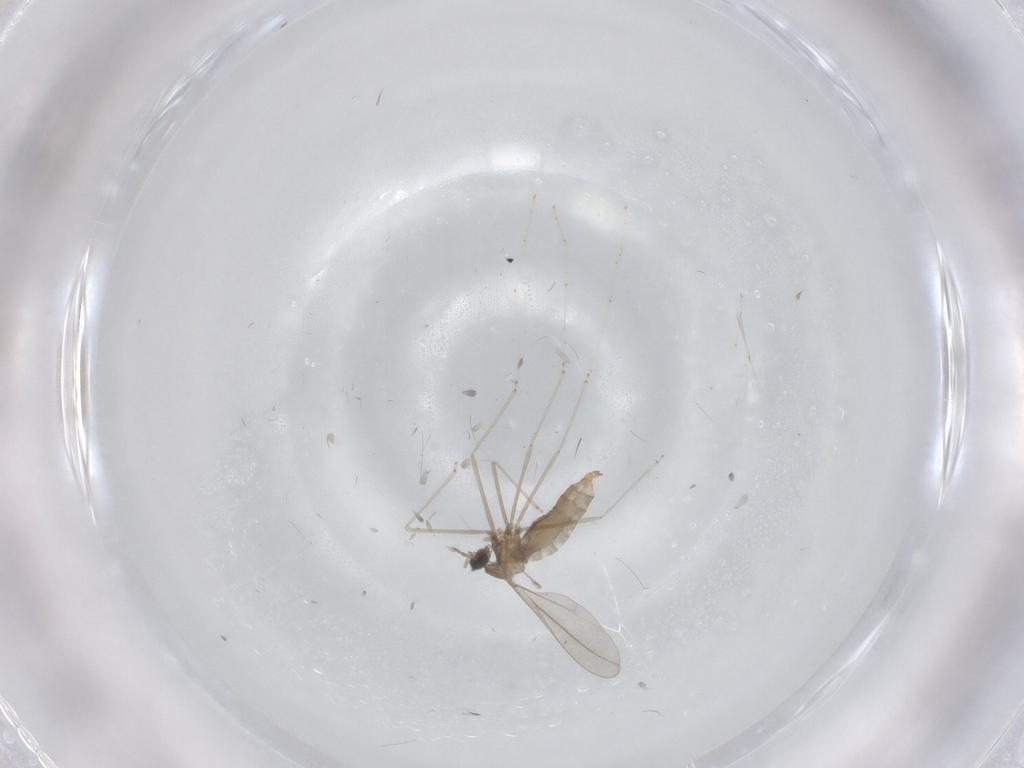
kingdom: Animalia
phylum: Arthropoda
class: Insecta
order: Diptera
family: Cecidomyiidae
